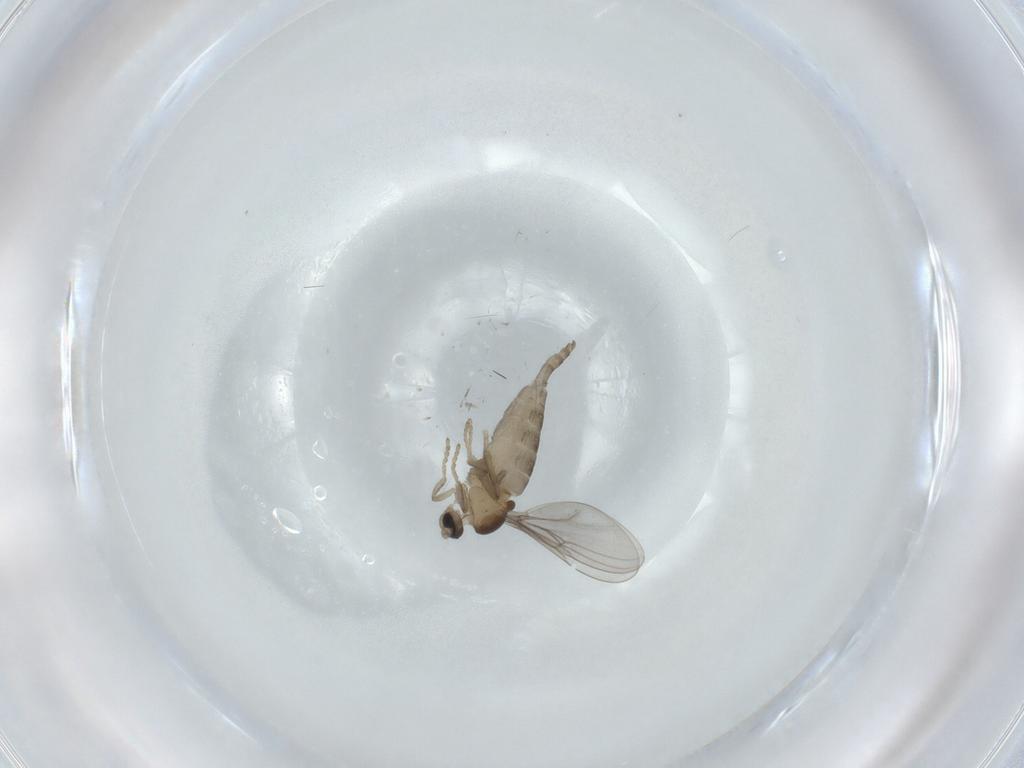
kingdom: Animalia
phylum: Arthropoda
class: Insecta
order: Diptera
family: Cecidomyiidae
